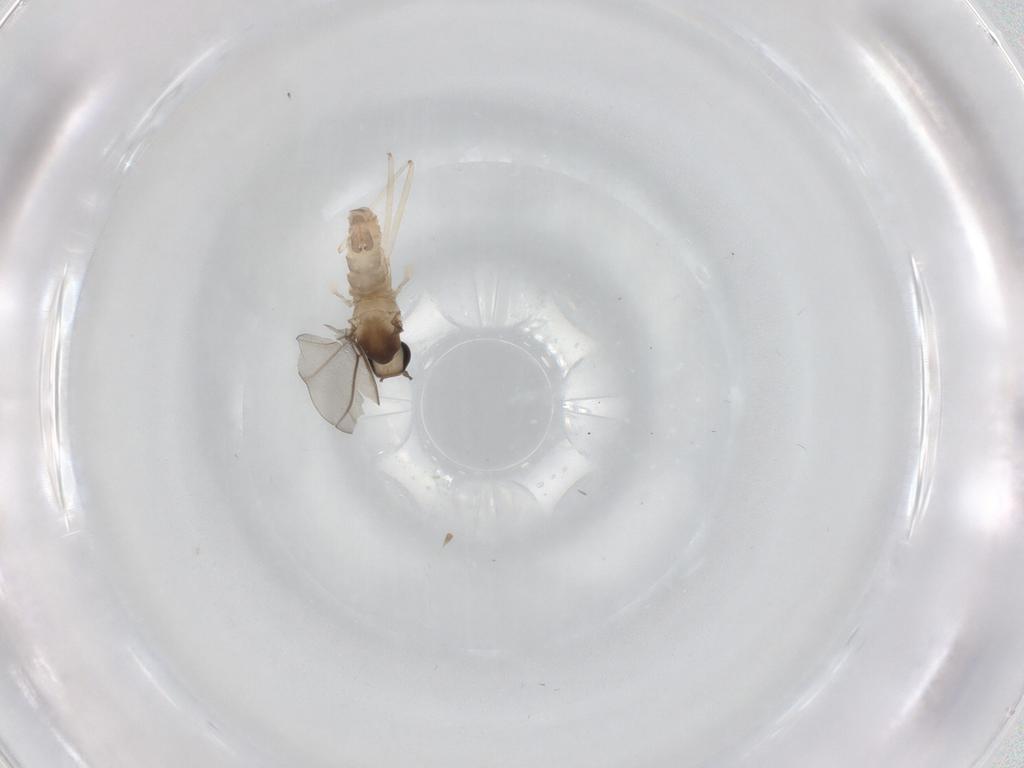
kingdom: Animalia
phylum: Arthropoda
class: Insecta
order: Diptera
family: Cecidomyiidae
